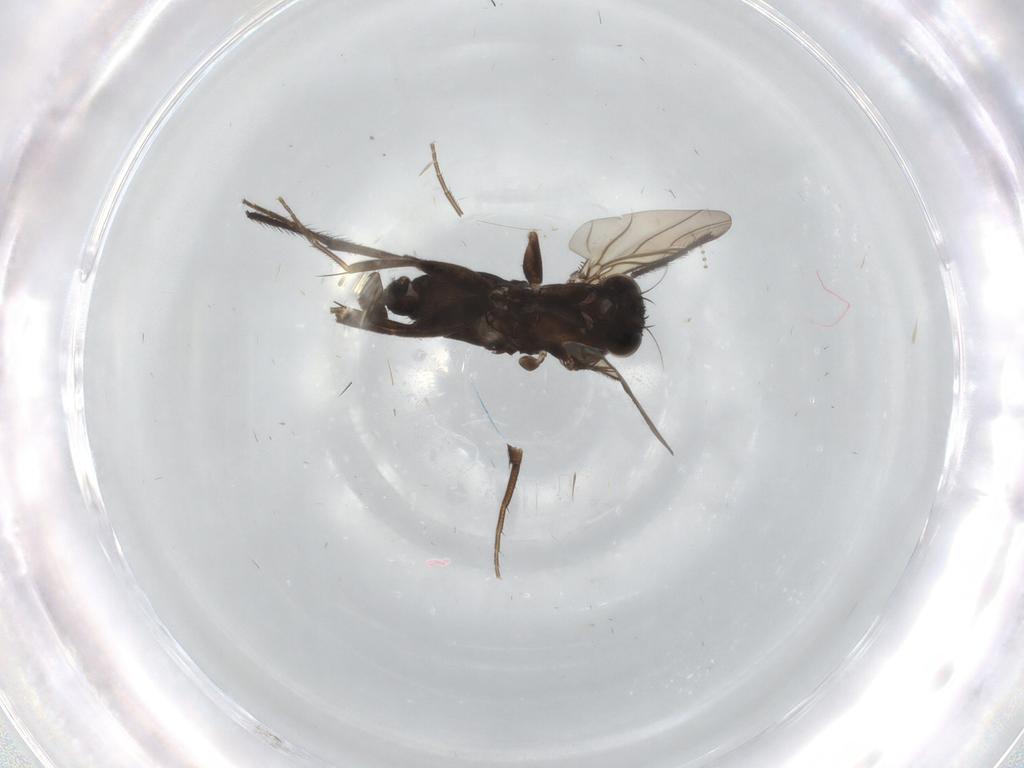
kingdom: Animalia
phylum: Arthropoda
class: Insecta
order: Diptera
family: Phoridae
